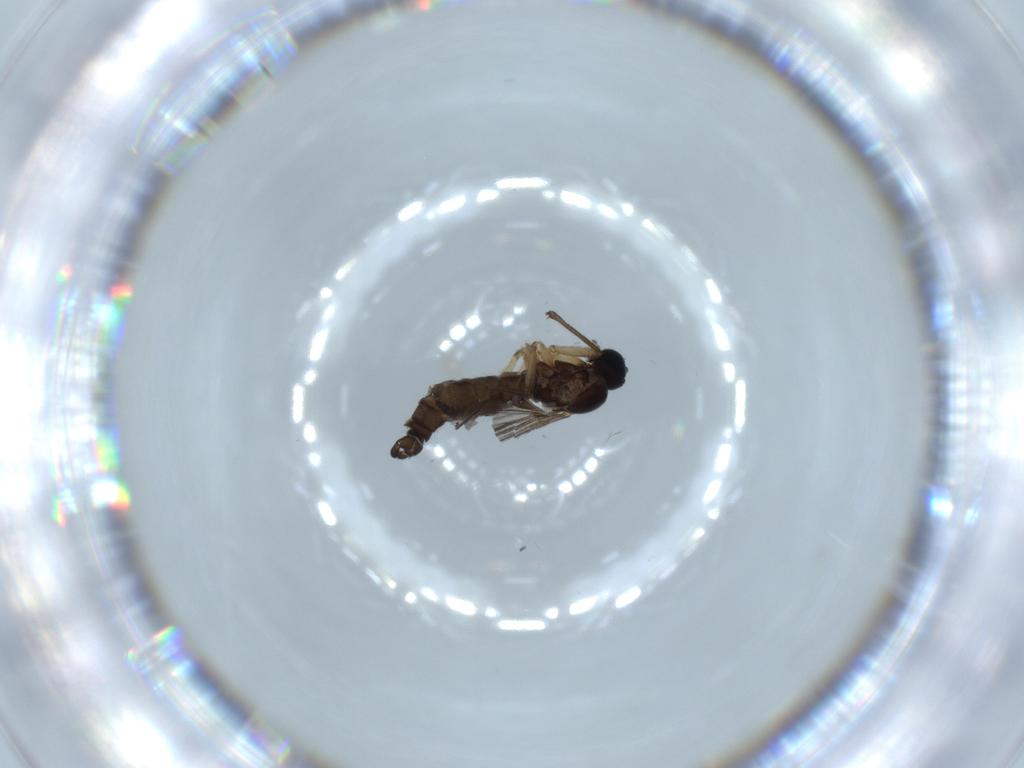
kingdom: Animalia
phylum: Arthropoda
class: Insecta
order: Diptera
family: Sciaridae
